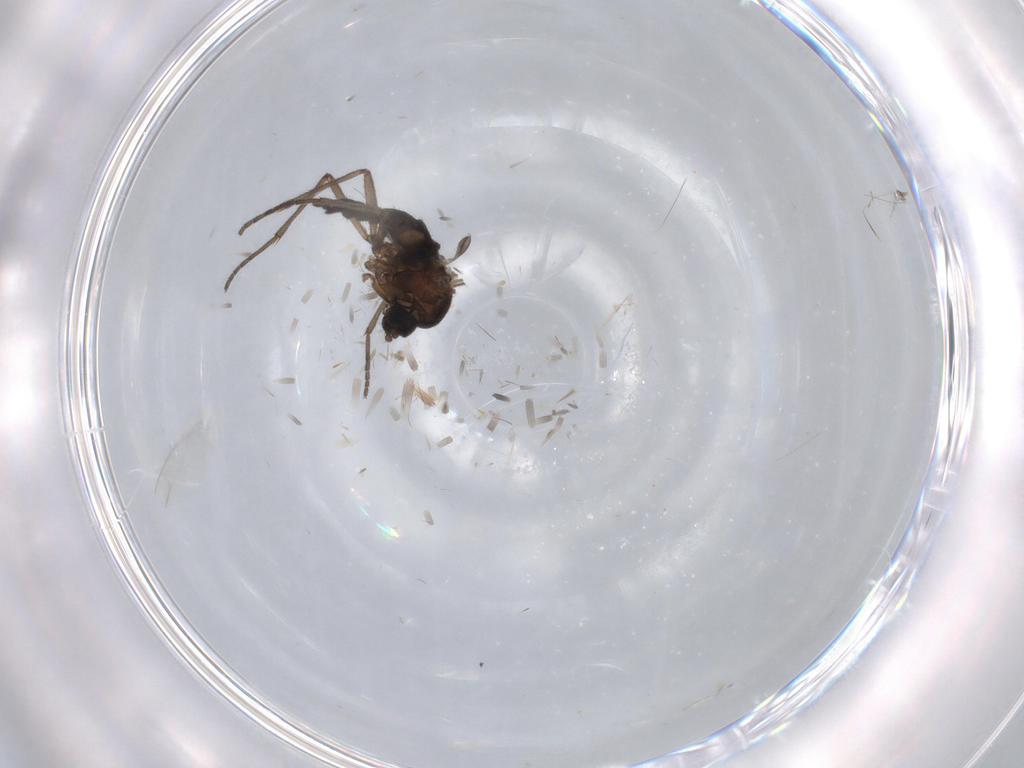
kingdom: Animalia
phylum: Arthropoda
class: Insecta
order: Diptera
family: Sciaridae
